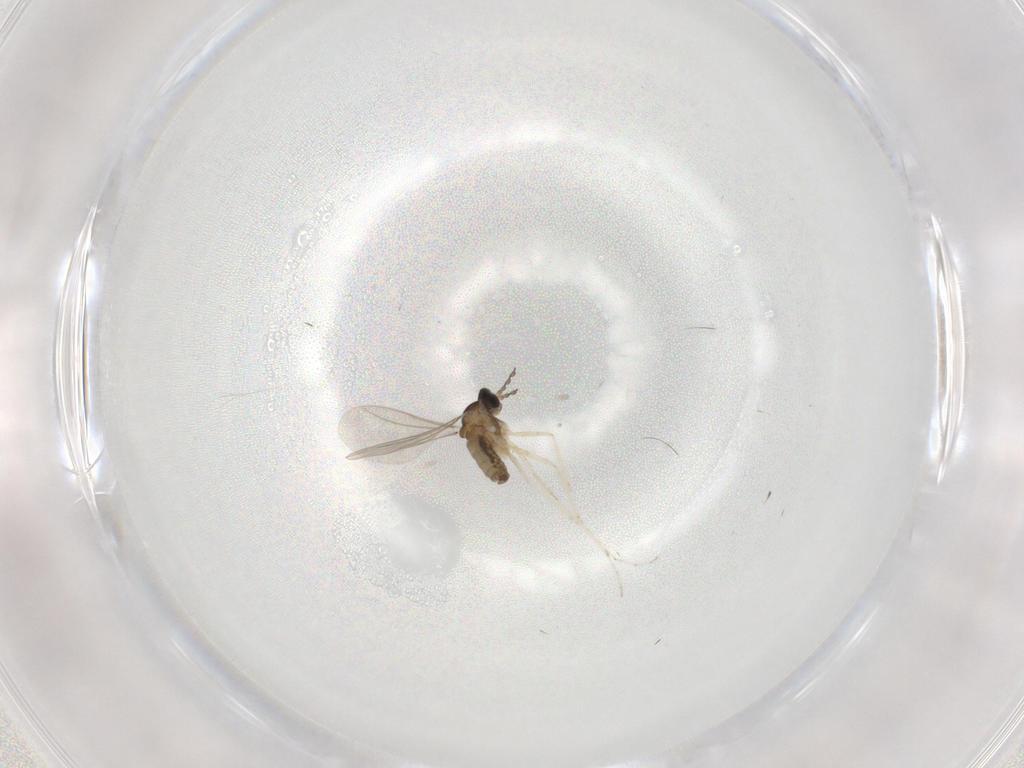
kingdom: Animalia
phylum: Arthropoda
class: Insecta
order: Diptera
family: Cecidomyiidae
